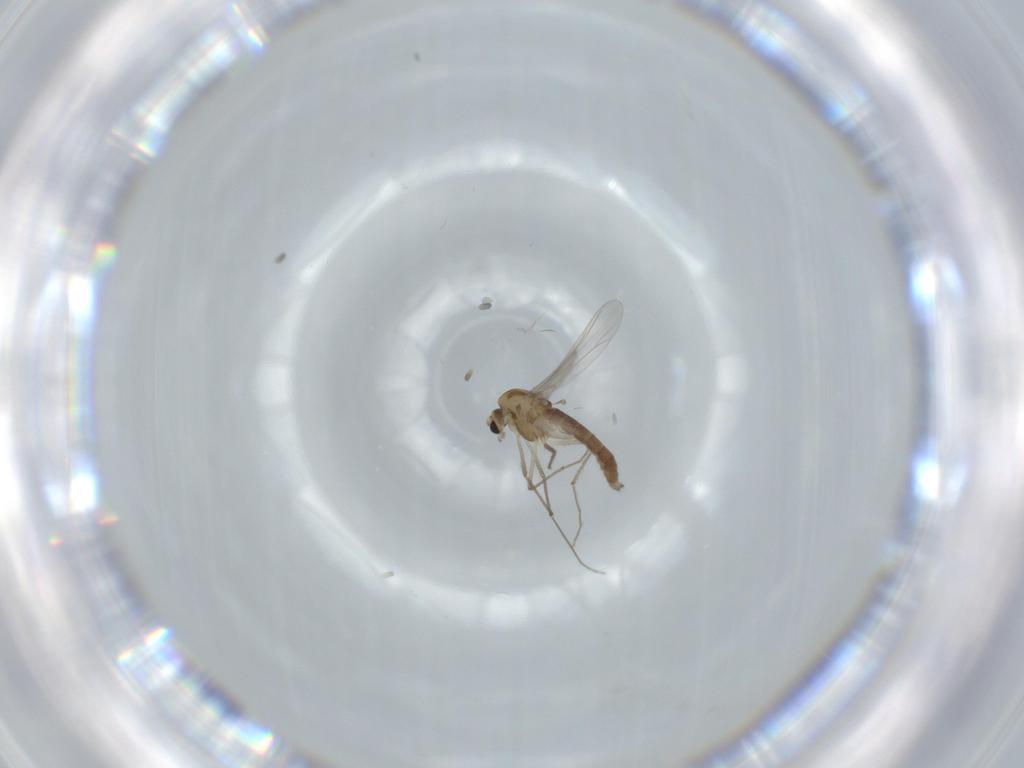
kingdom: Animalia
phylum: Arthropoda
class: Insecta
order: Diptera
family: Chironomidae
